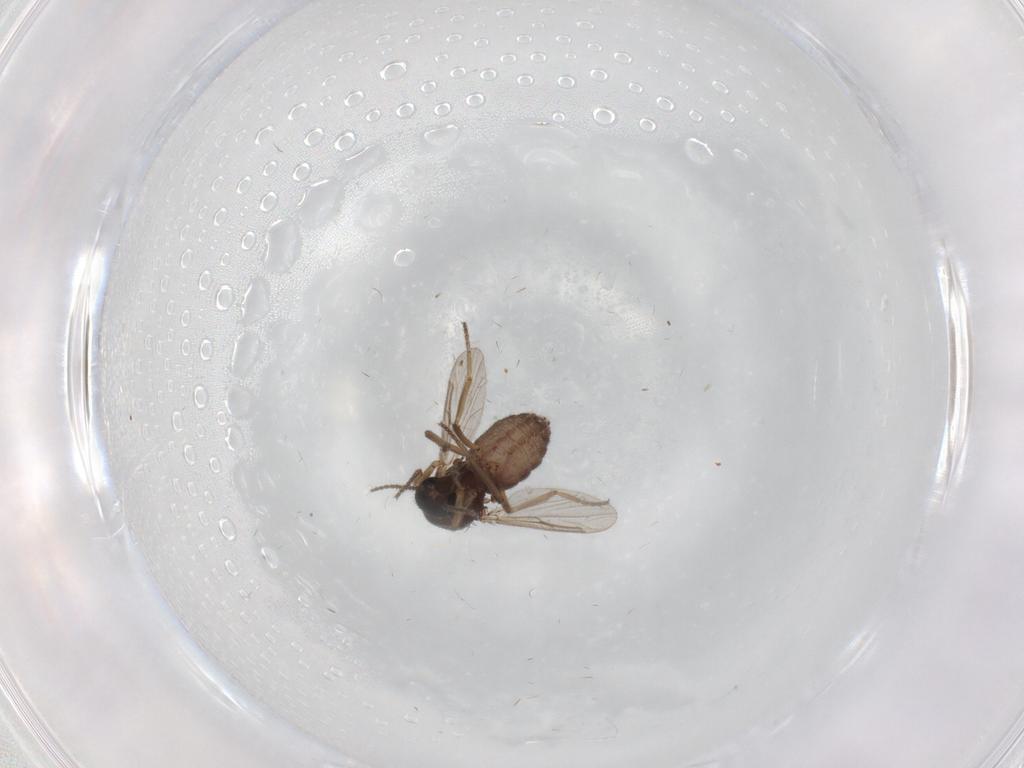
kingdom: Animalia
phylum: Arthropoda
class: Insecta
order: Diptera
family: Ceratopogonidae
